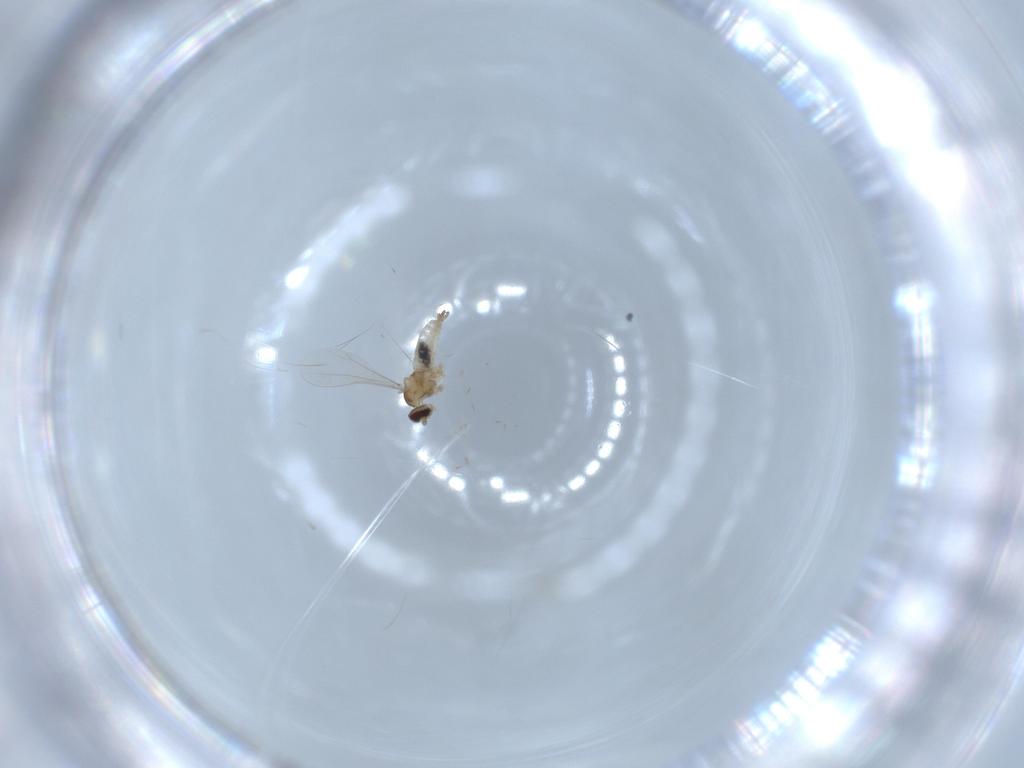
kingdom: Animalia
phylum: Arthropoda
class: Insecta
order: Diptera
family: Cecidomyiidae
